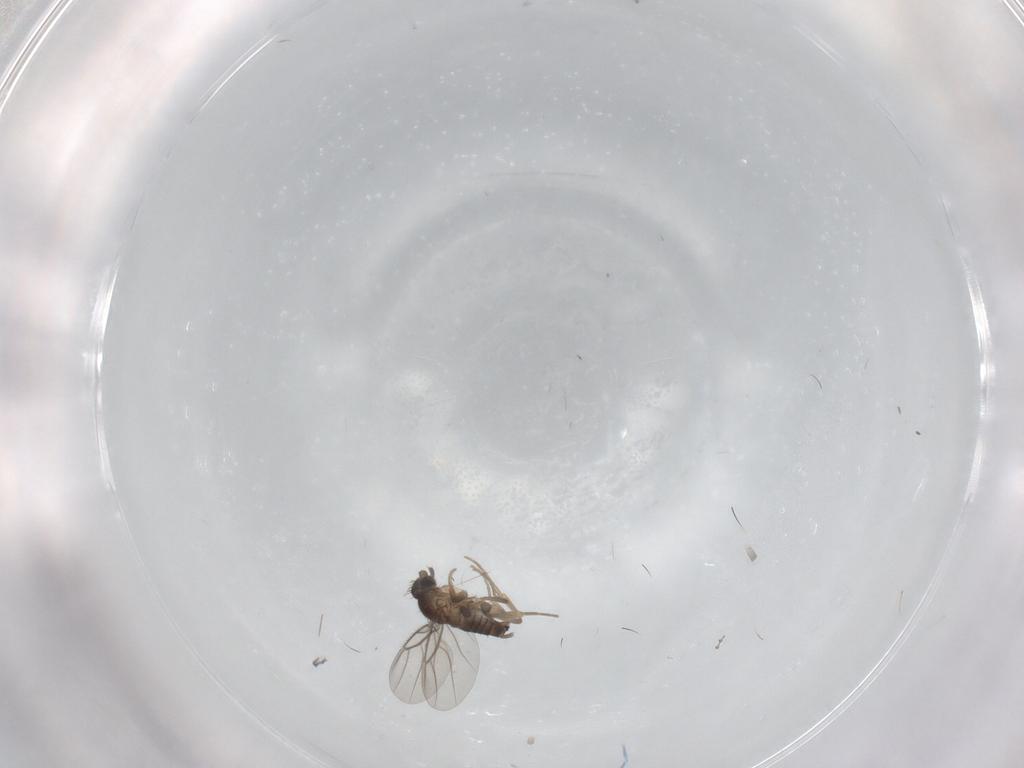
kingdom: Animalia
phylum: Arthropoda
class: Insecta
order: Diptera
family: Phoridae
